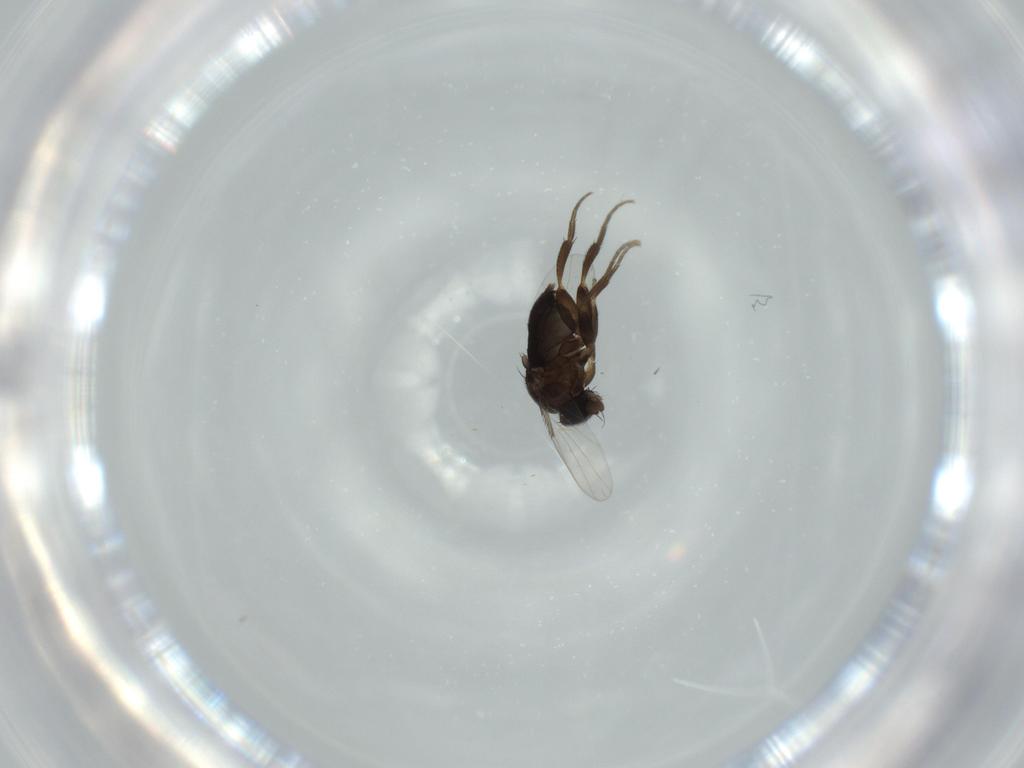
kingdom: Animalia
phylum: Arthropoda
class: Insecta
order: Diptera
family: Phoridae
